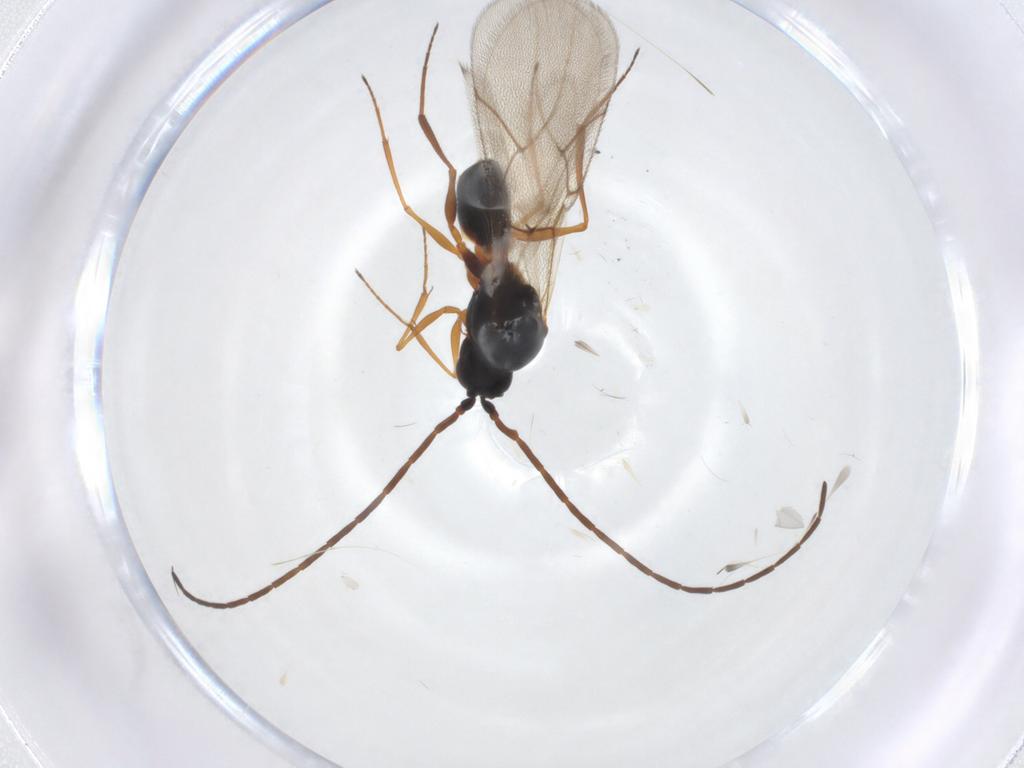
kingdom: Animalia
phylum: Arthropoda
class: Insecta
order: Hymenoptera
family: Figitidae
